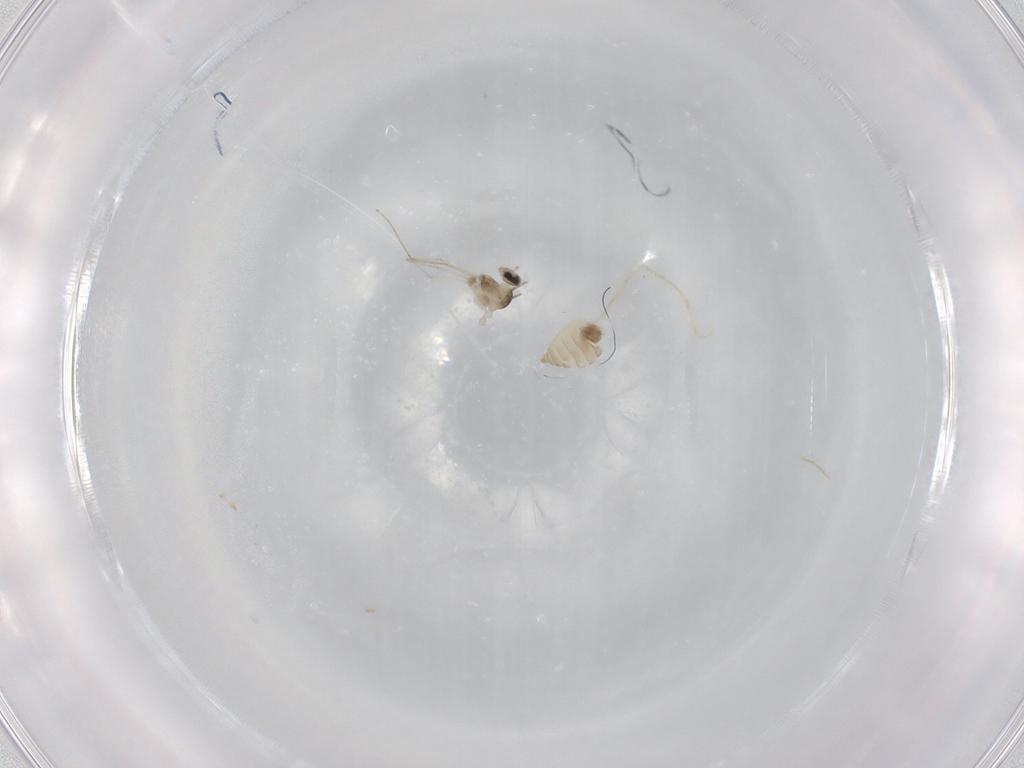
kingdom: Animalia
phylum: Arthropoda
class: Insecta
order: Diptera
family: Cecidomyiidae
